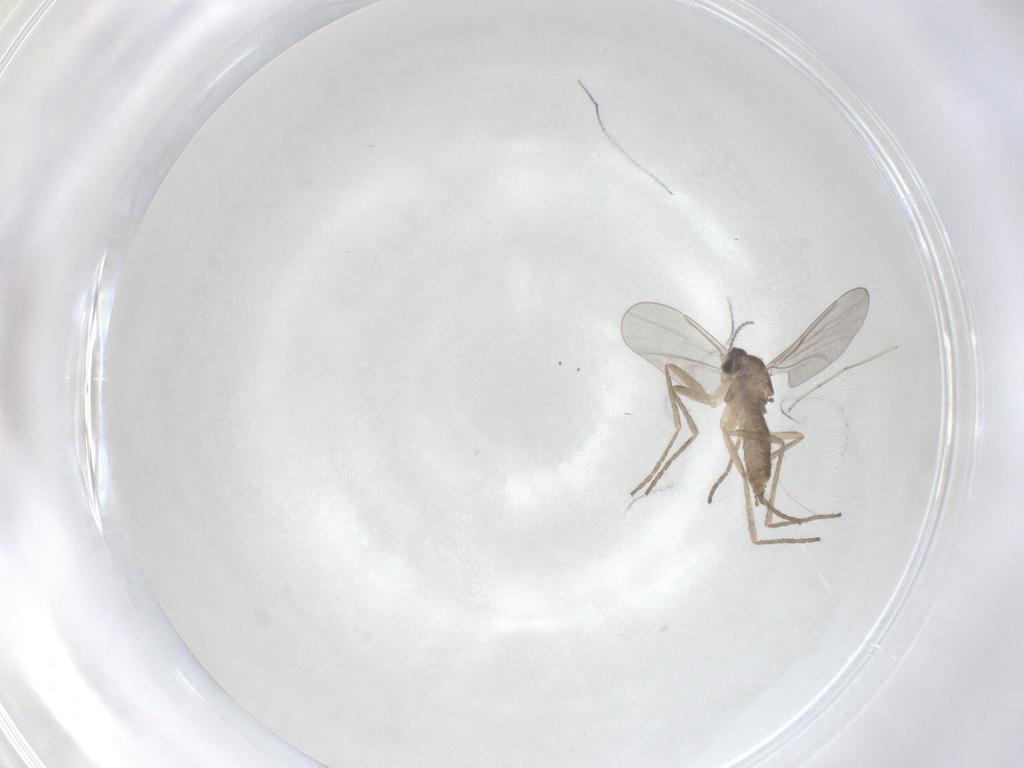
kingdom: Animalia
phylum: Arthropoda
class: Insecta
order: Diptera
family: Cecidomyiidae
